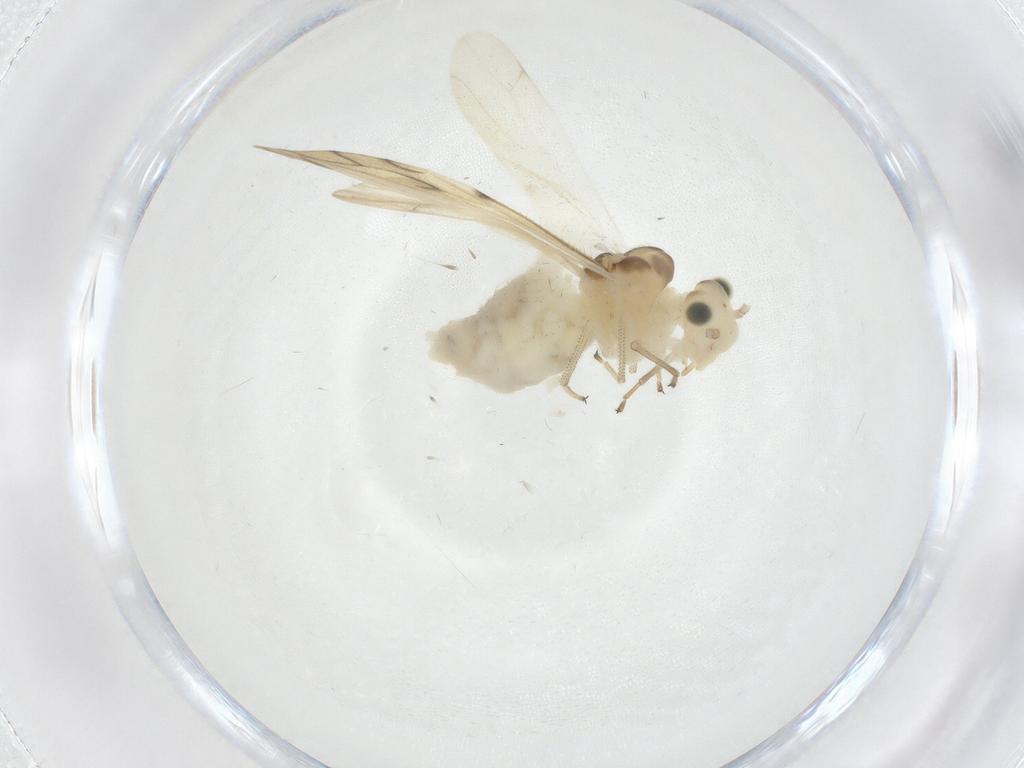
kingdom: Animalia
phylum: Arthropoda
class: Insecta
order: Psocodea
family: Caeciliusidae
